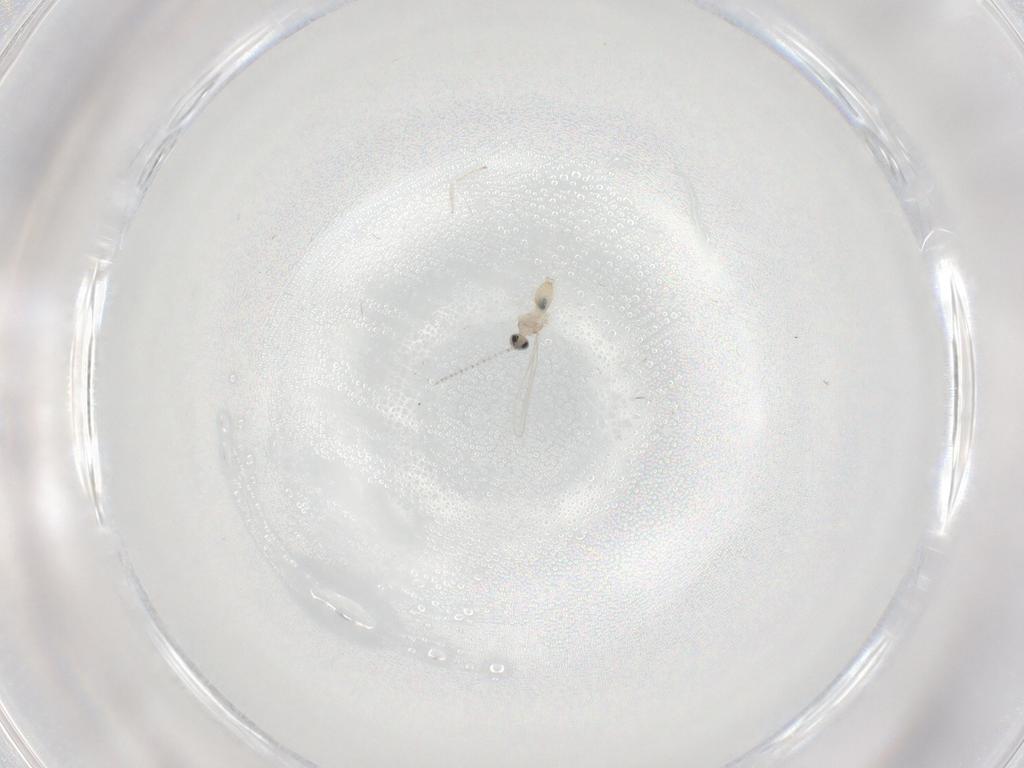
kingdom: Animalia
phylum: Arthropoda
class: Insecta
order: Diptera
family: Cecidomyiidae
